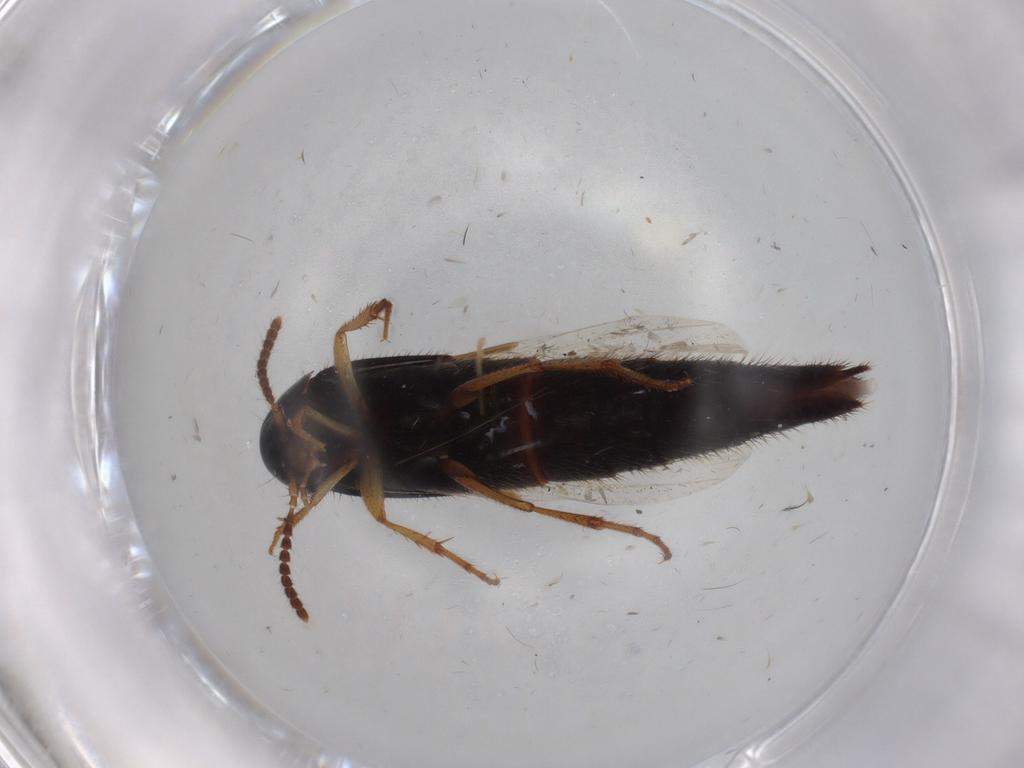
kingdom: Animalia
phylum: Arthropoda
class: Insecta
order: Coleoptera
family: Staphylinidae
